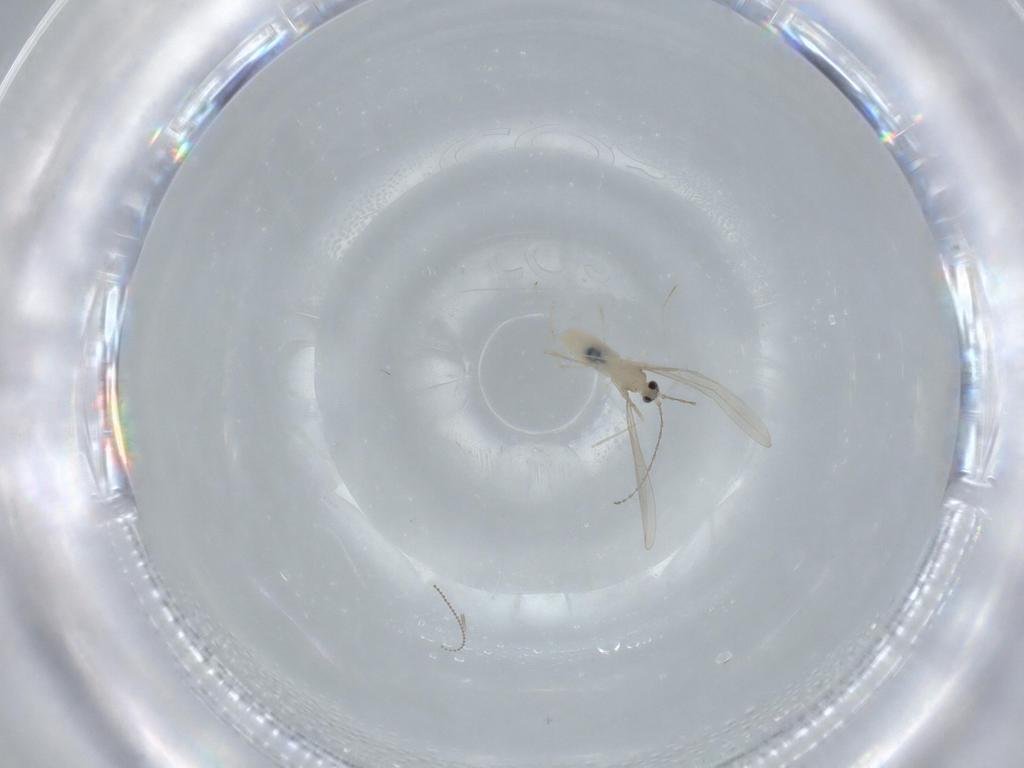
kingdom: Animalia
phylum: Arthropoda
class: Insecta
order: Diptera
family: Cecidomyiidae
